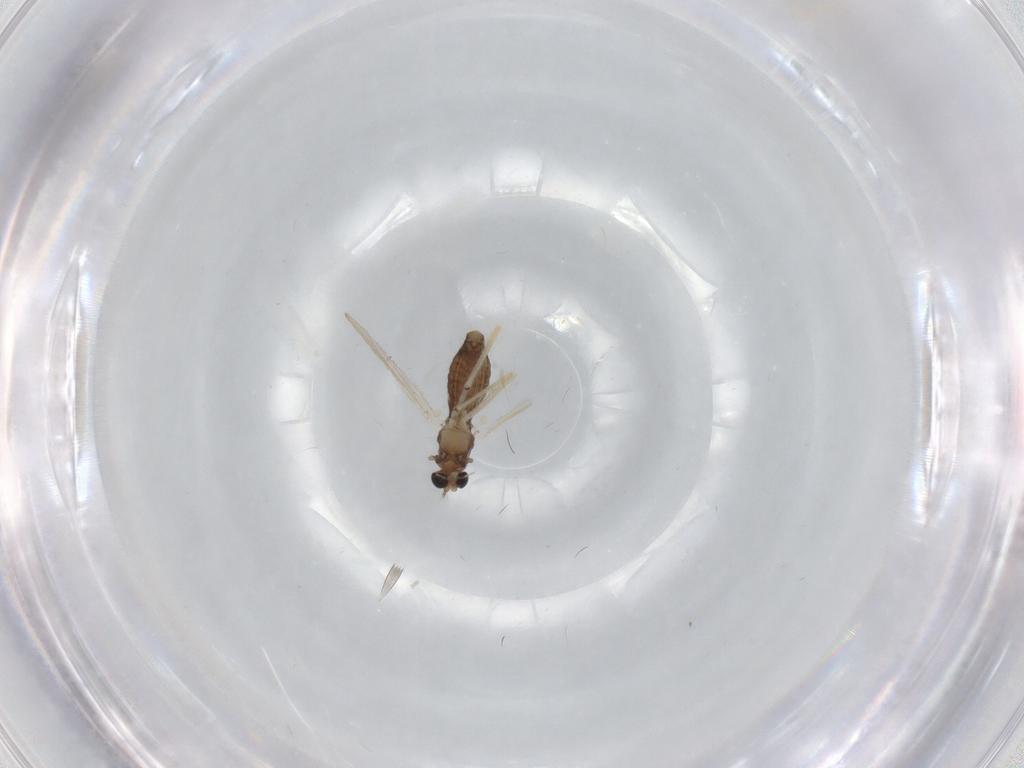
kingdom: Animalia
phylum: Arthropoda
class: Insecta
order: Diptera
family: Chironomidae
